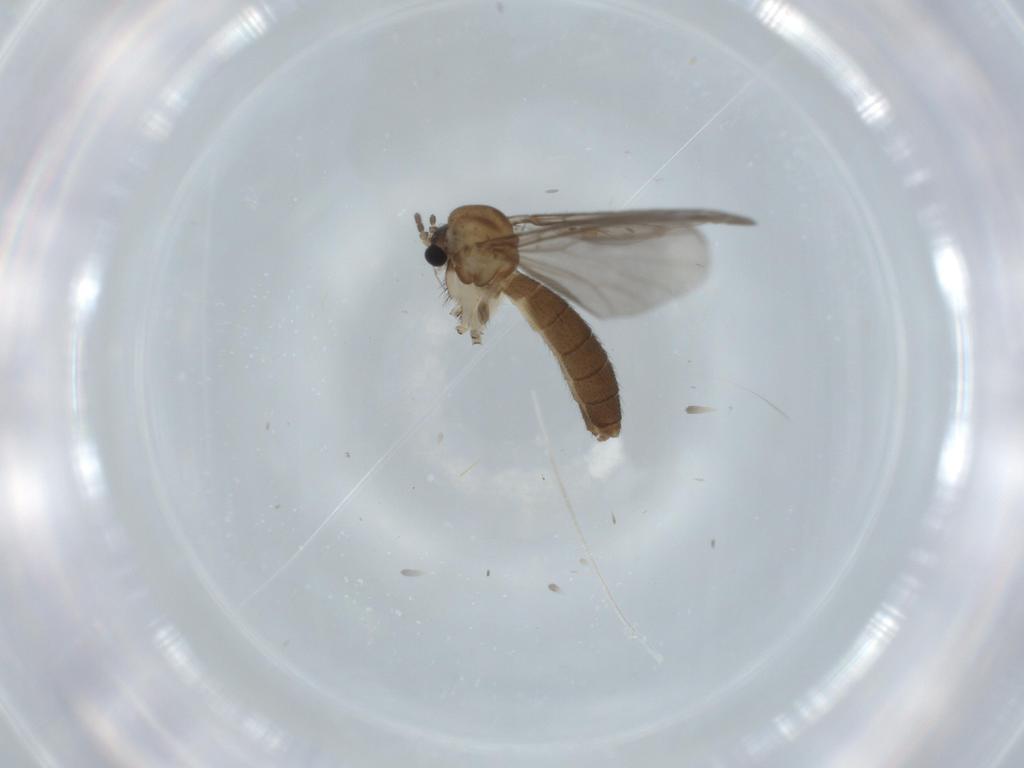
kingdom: Animalia
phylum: Arthropoda
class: Insecta
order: Diptera
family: Mycetophilidae
